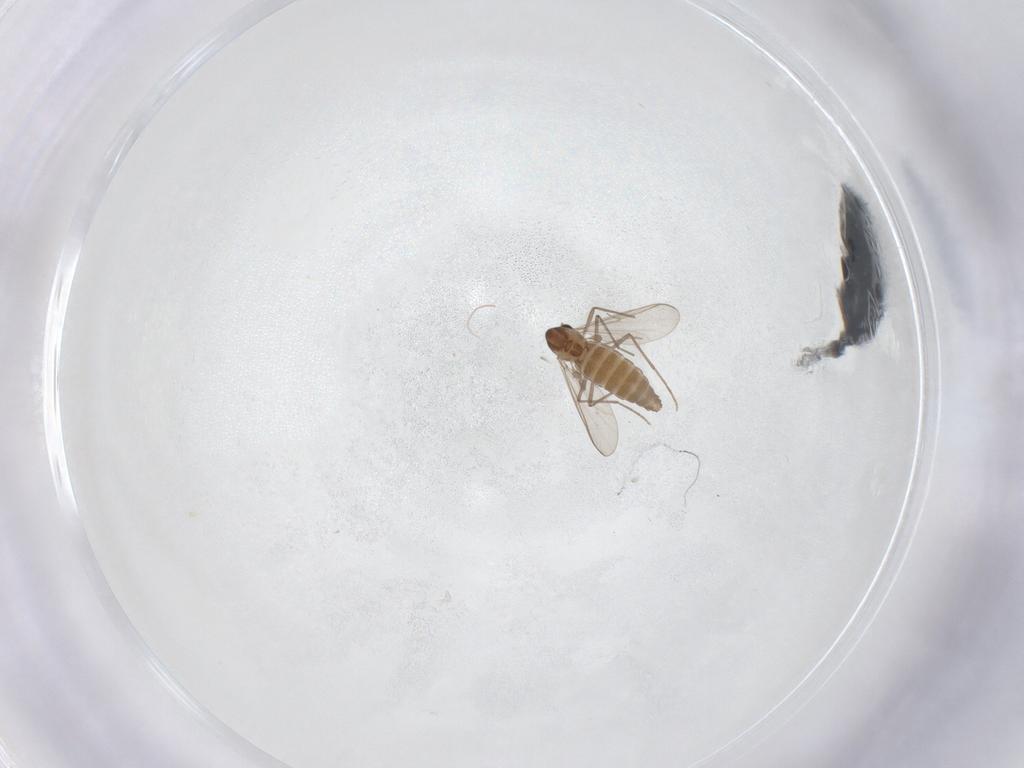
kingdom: Animalia
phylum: Arthropoda
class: Insecta
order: Diptera
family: Chironomidae
